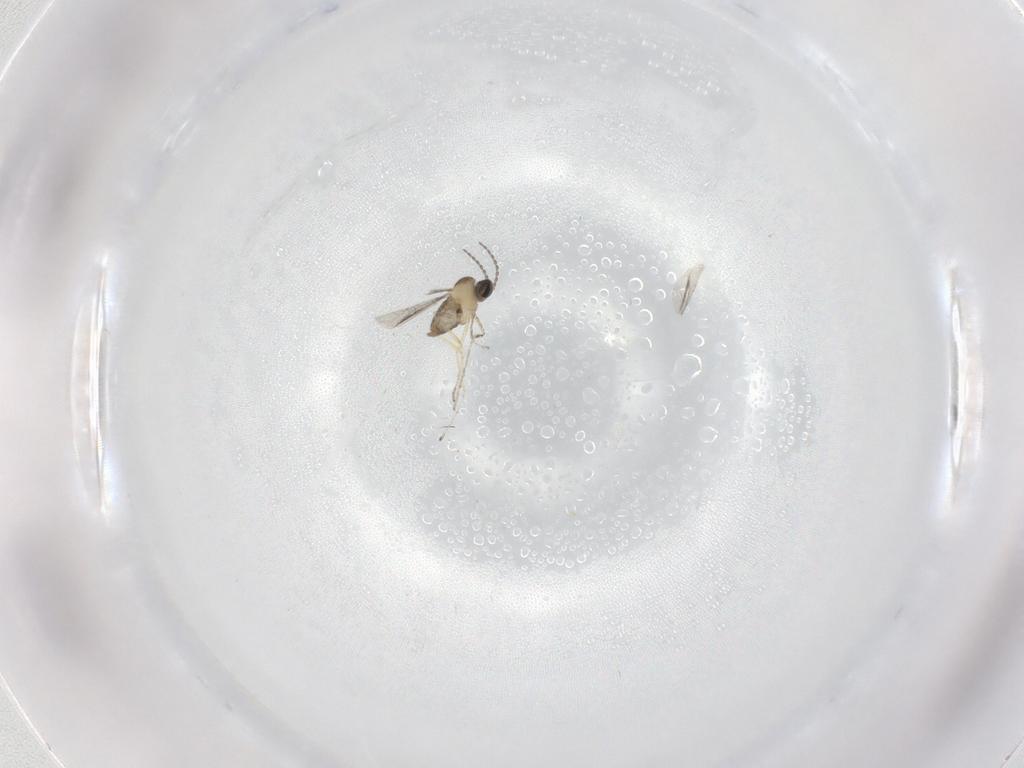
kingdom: Animalia
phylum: Arthropoda
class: Insecta
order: Diptera
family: Cecidomyiidae
